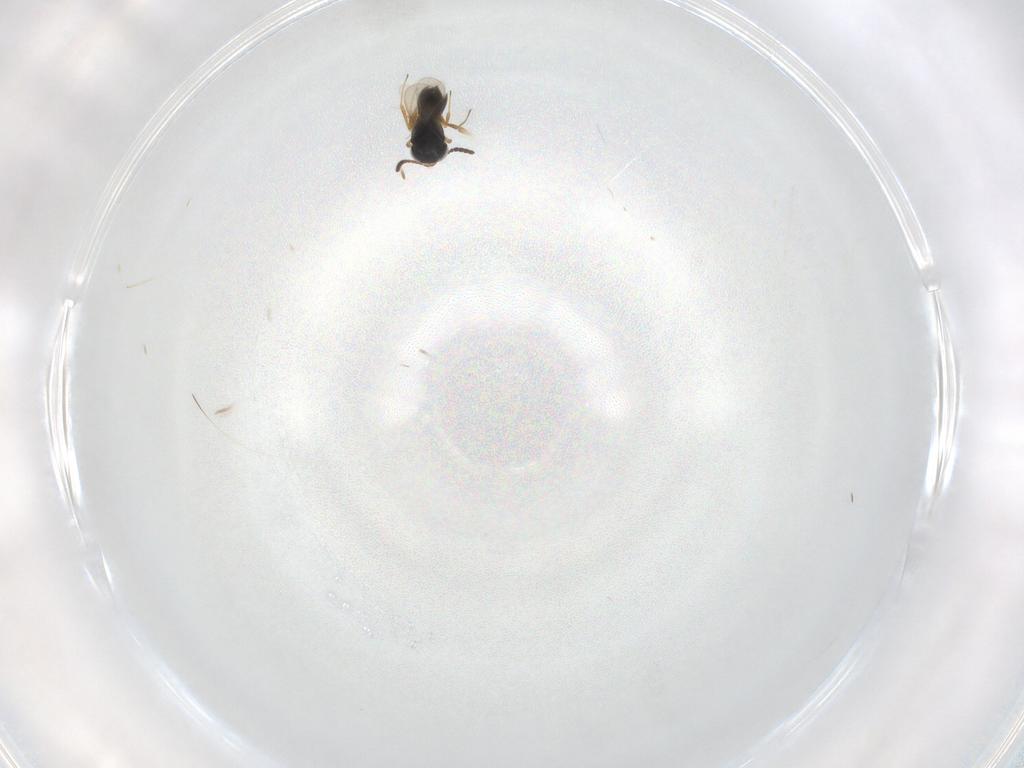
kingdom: Animalia
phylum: Arthropoda
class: Insecta
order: Hymenoptera
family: Scelionidae
